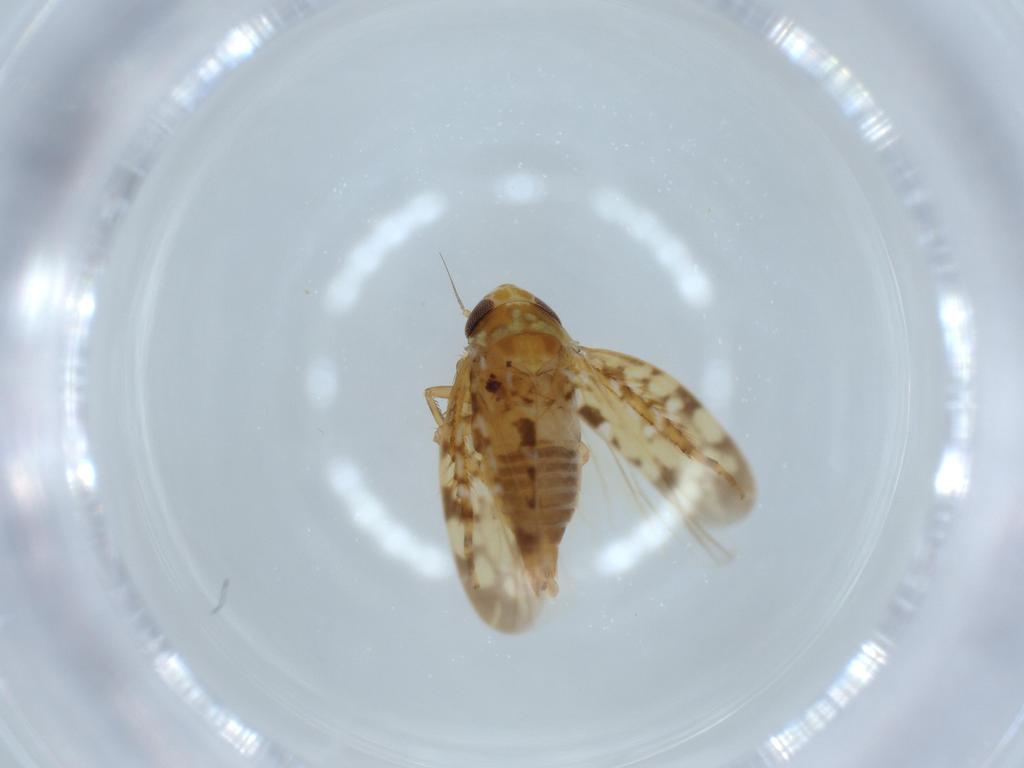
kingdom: Animalia
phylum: Arthropoda
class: Insecta
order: Hemiptera
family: Cicadellidae
